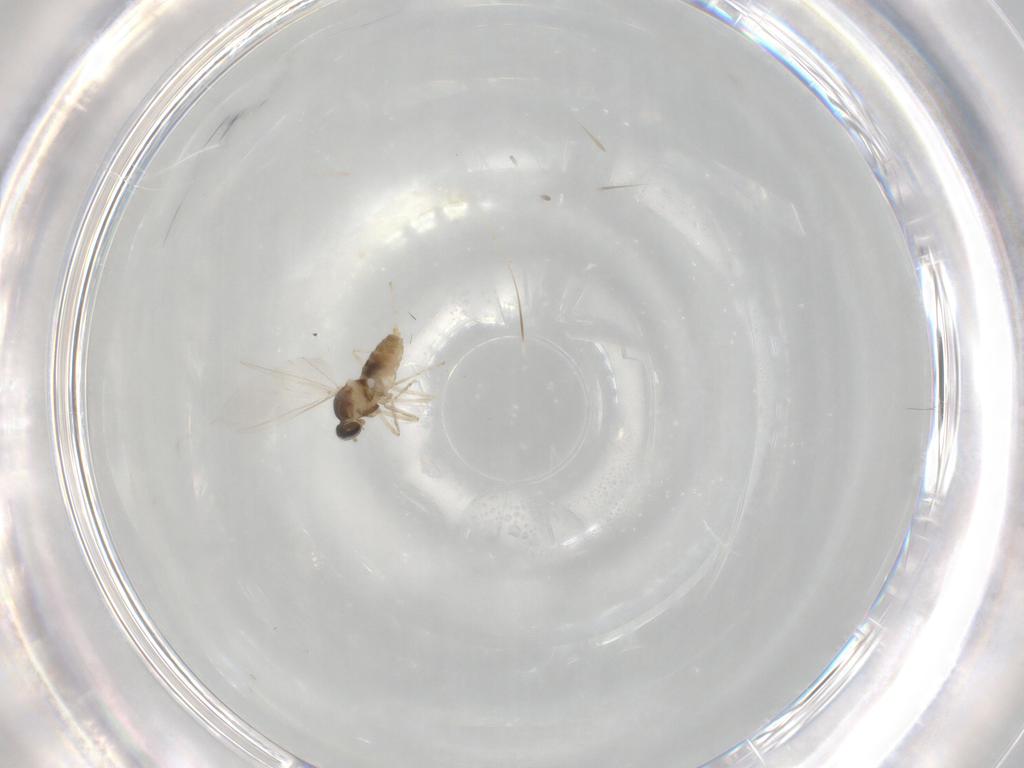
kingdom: Animalia
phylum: Arthropoda
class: Insecta
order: Diptera
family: Cecidomyiidae
